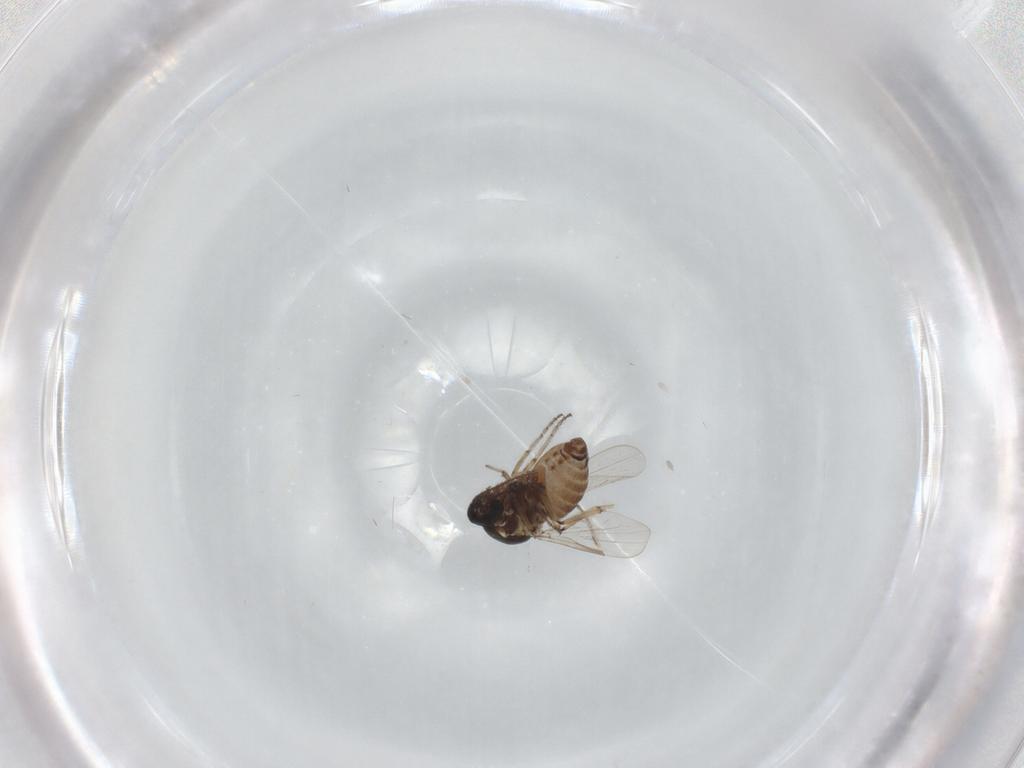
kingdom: Animalia
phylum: Arthropoda
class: Insecta
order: Diptera
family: Ceratopogonidae
